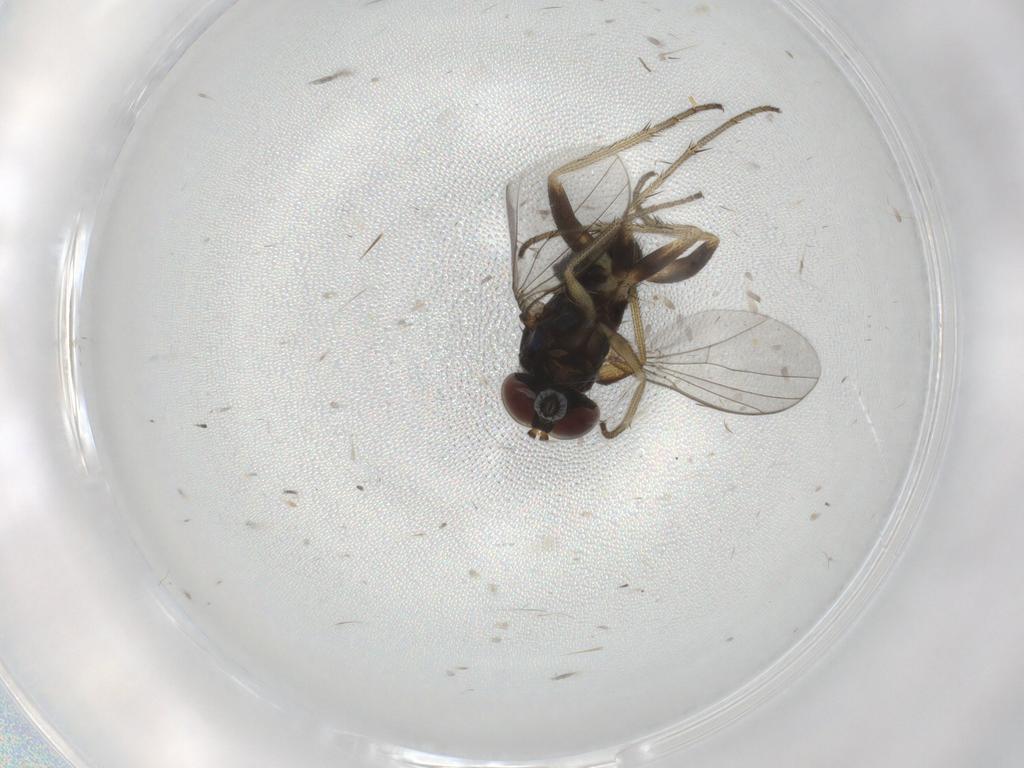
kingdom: Animalia
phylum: Arthropoda
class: Insecta
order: Diptera
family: Dolichopodidae
